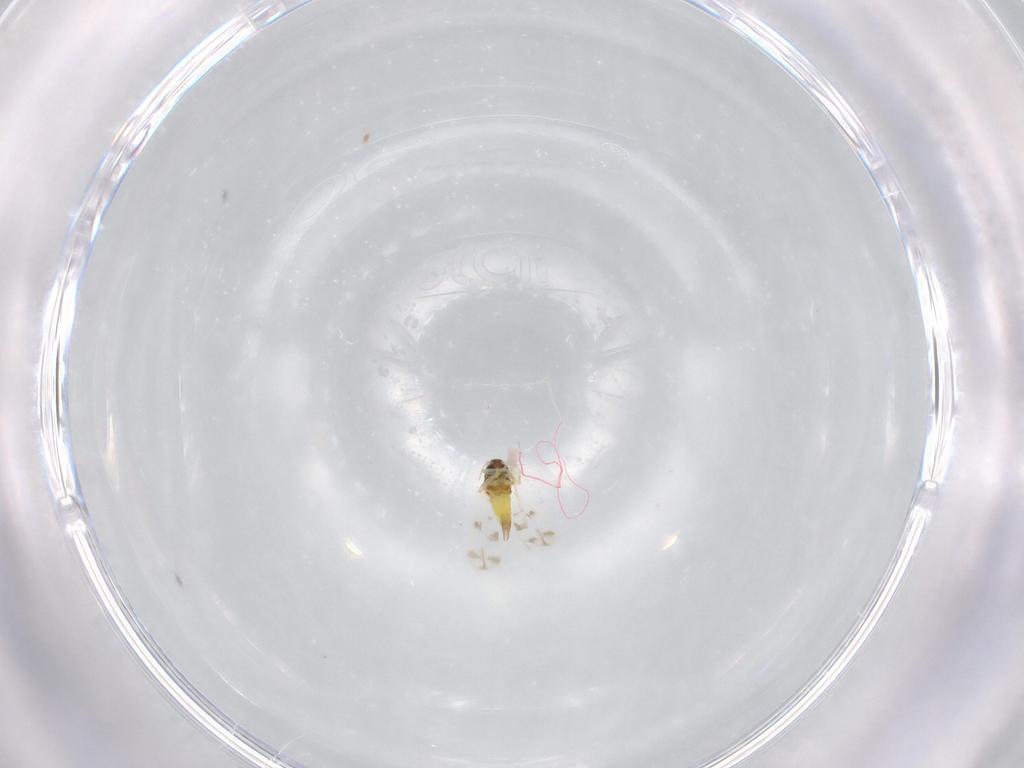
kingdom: Animalia
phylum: Arthropoda
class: Insecta
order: Hemiptera
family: Aleyrodidae
